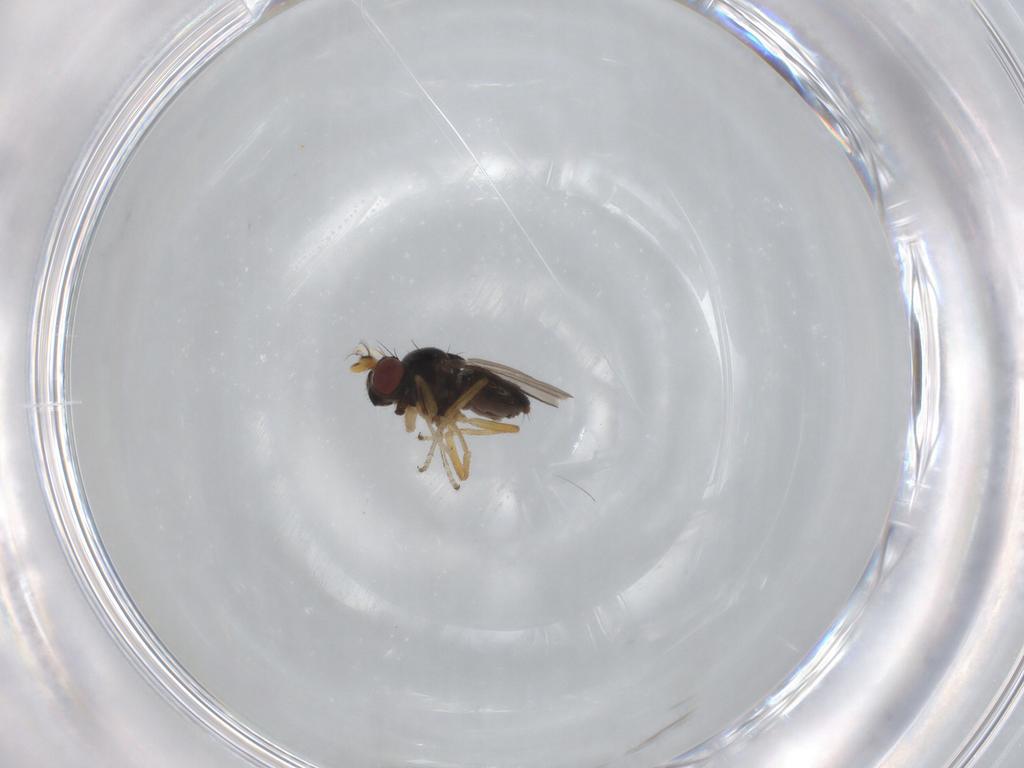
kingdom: Animalia
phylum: Arthropoda
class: Insecta
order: Diptera
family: Ephydridae
